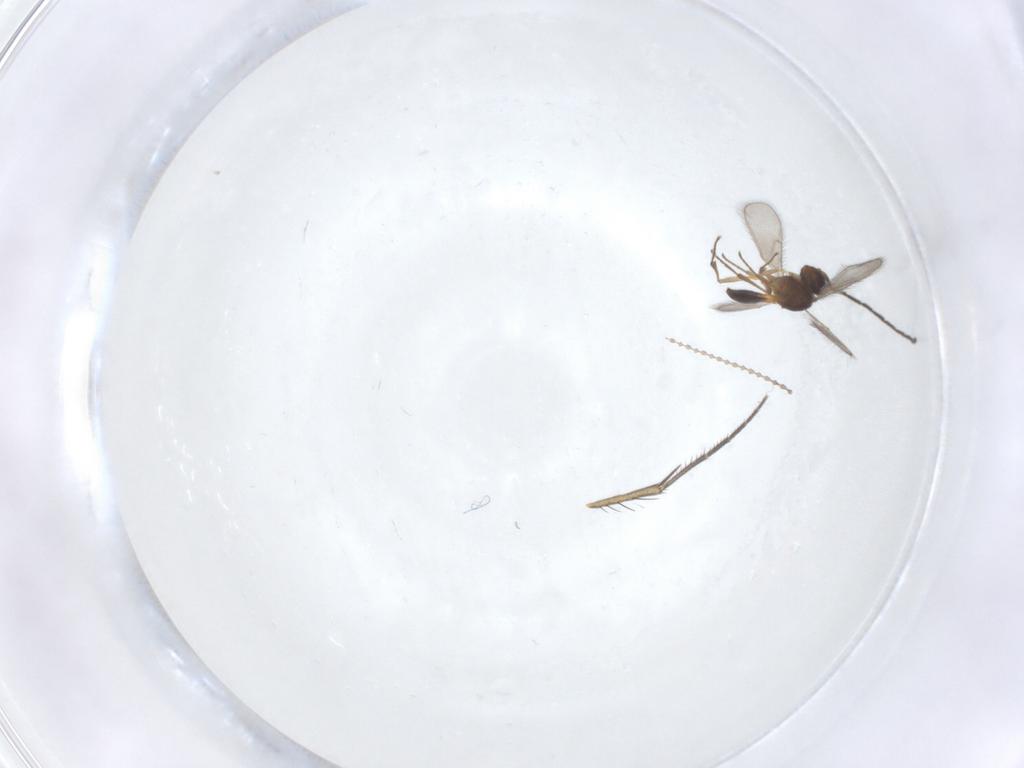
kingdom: Animalia
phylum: Arthropoda
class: Insecta
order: Diptera
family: Cecidomyiidae
